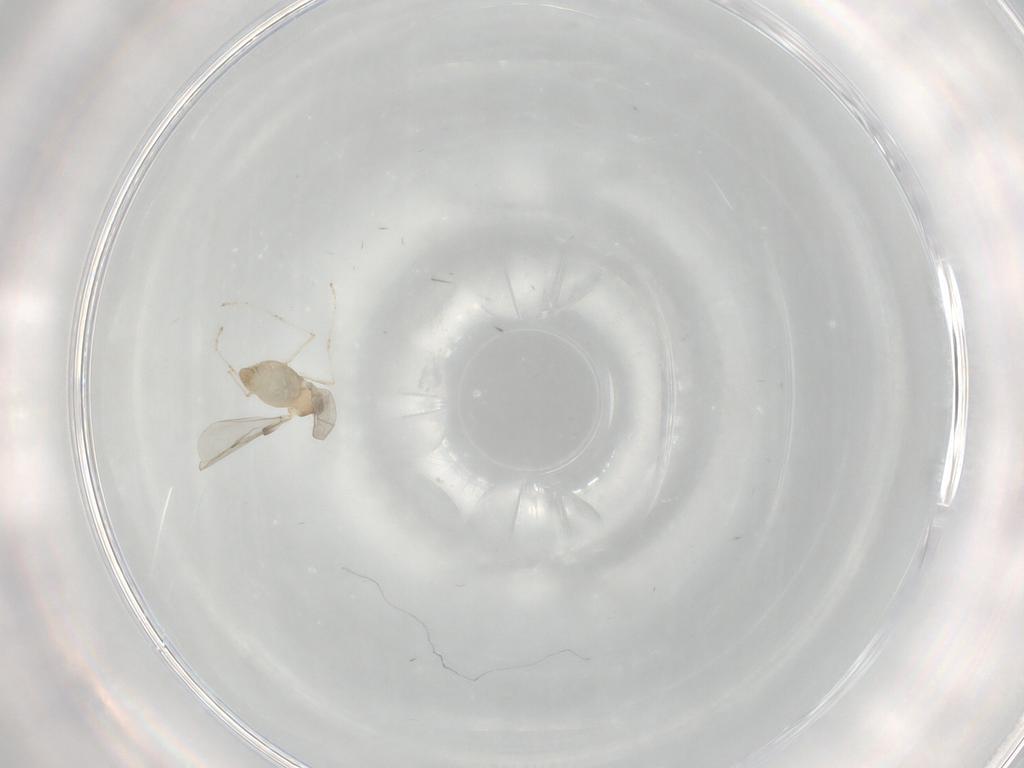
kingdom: Animalia
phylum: Arthropoda
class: Insecta
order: Diptera
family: Cecidomyiidae
